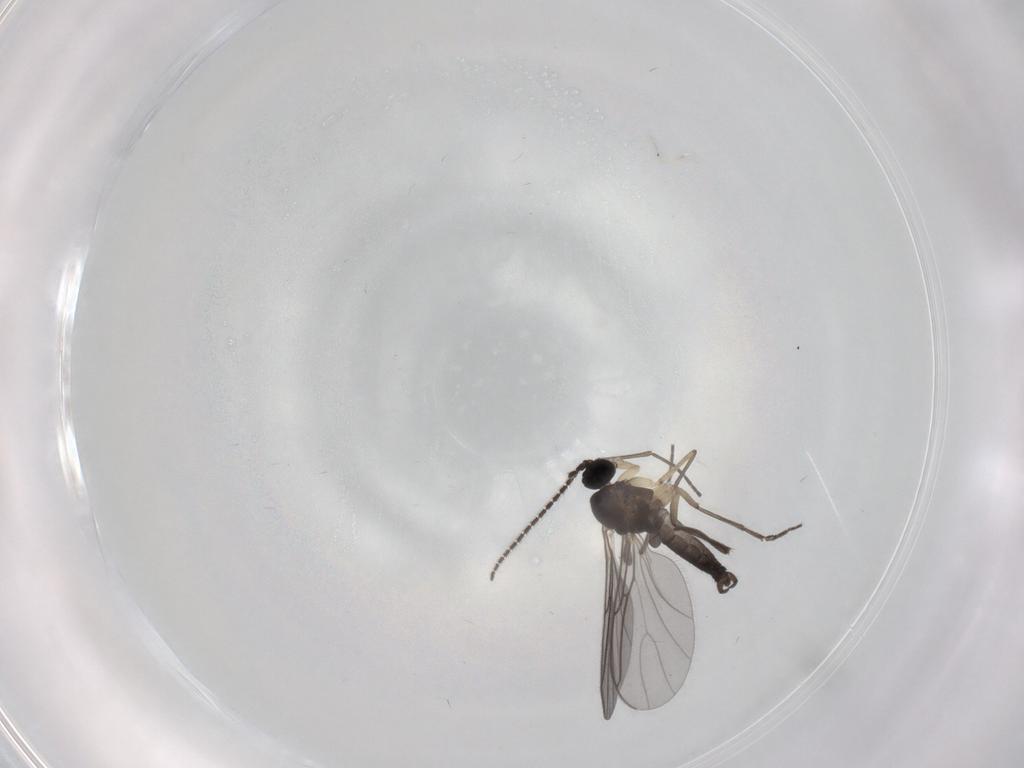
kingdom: Animalia
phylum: Arthropoda
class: Insecta
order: Diptera
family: Sciaridae
